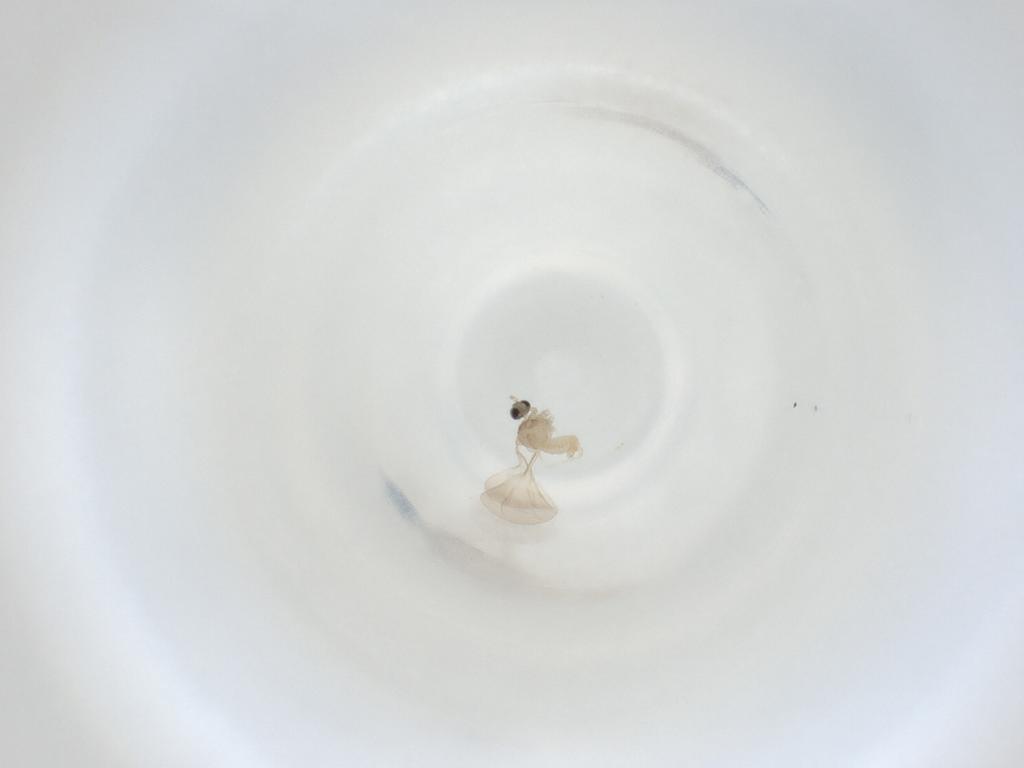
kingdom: Animalia
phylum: Arthropoda
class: Insecta
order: Diptera
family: Cecidomyiidae
